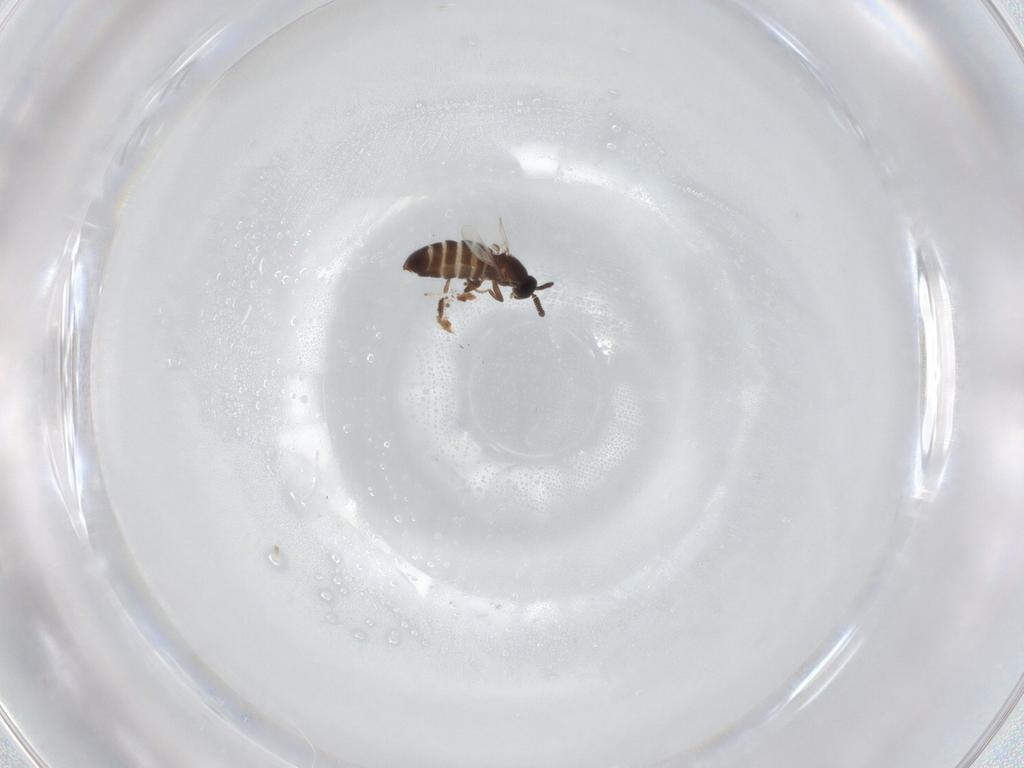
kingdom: Animalia
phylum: Arthropoda
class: Insecta
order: Diptera
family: Scatopsidae
